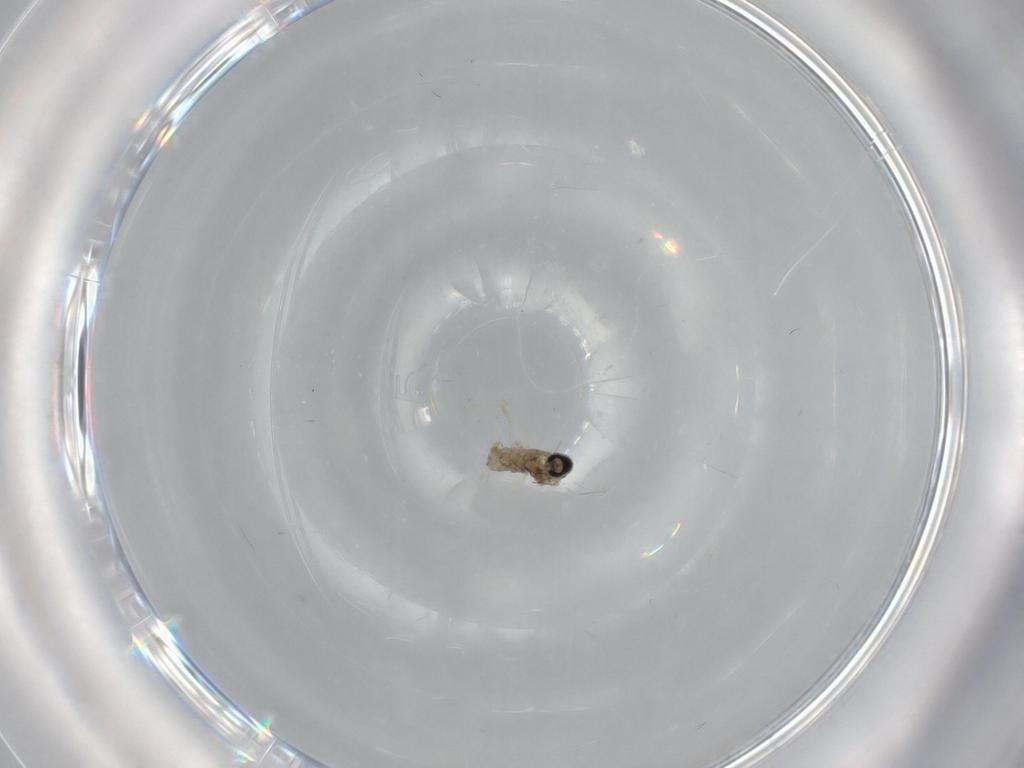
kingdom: Animalia
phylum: Arthropoda
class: Insecta
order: Diptera
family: Cecidomyiidae
